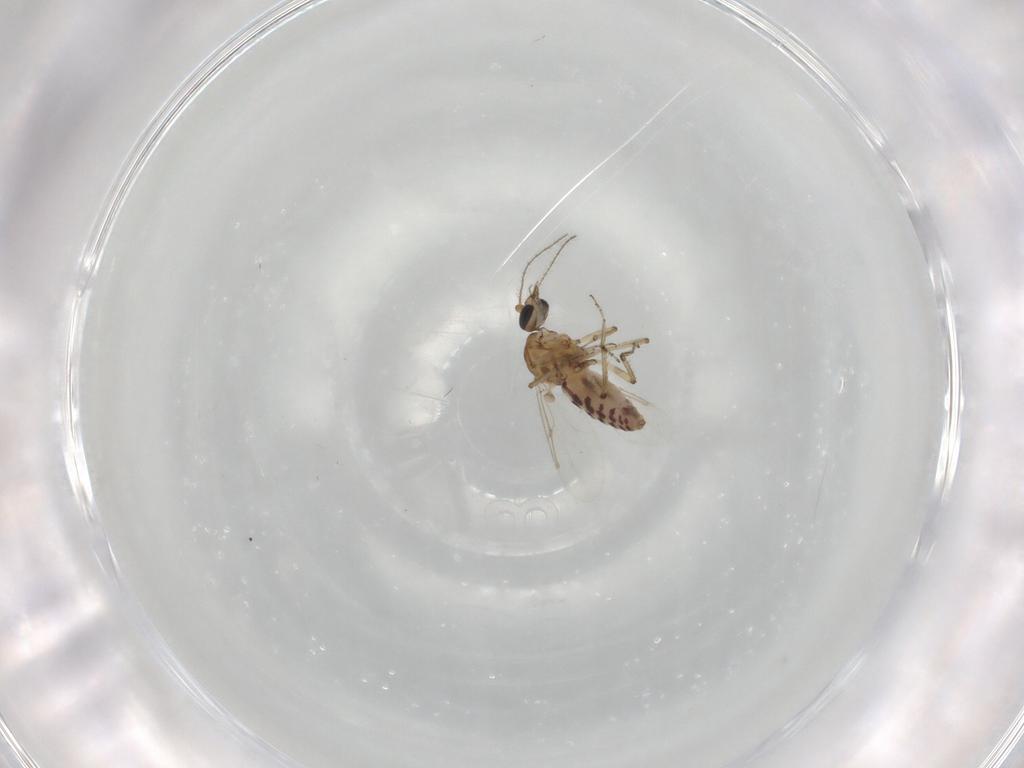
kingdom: Animalia
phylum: Arthropoda
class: Insecta
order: Diptera
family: Ceratopogonidae
